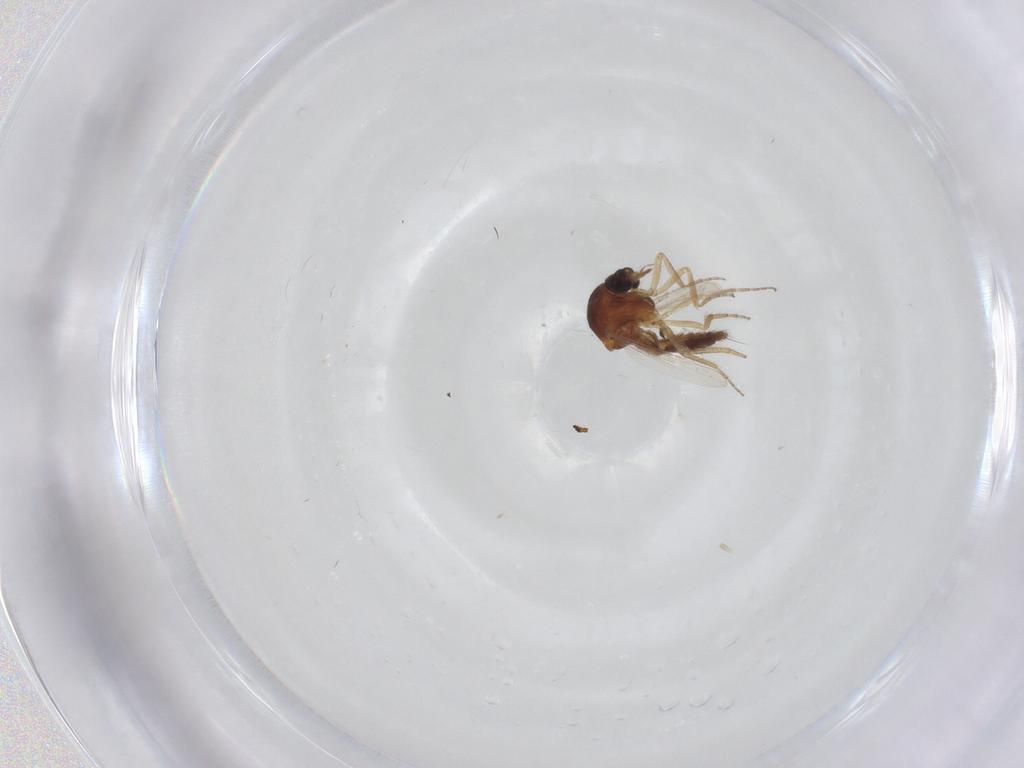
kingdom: Animalia
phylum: Arthropoda
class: Insecta
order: Diptera
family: Cecidomyiidae
